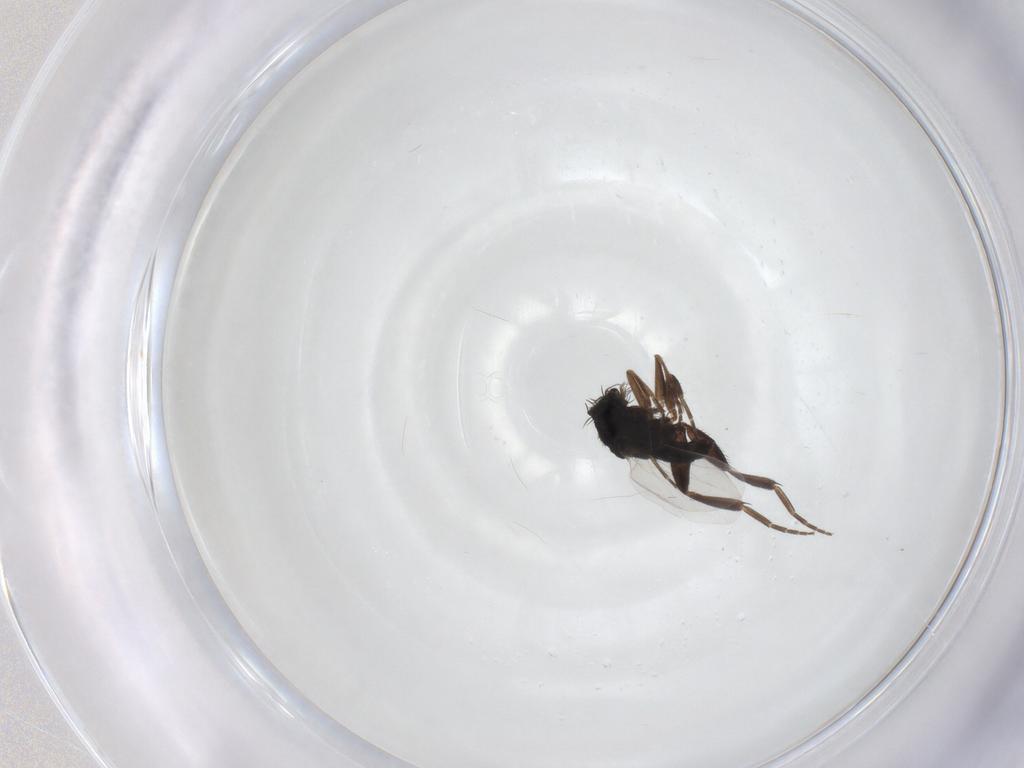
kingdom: Animalia
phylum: Arthropoda
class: Insecta
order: Diptera
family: Phoridae
